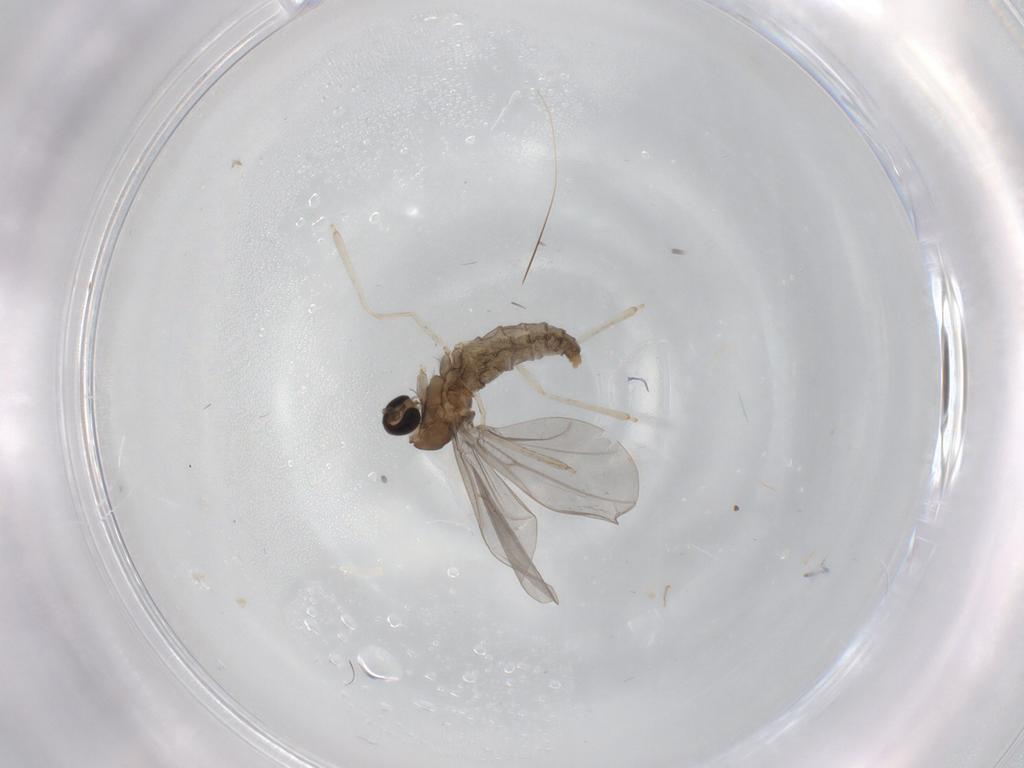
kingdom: Animalia
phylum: Arthropoda
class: Insecta
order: Diptera
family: Cecidomyiidae
